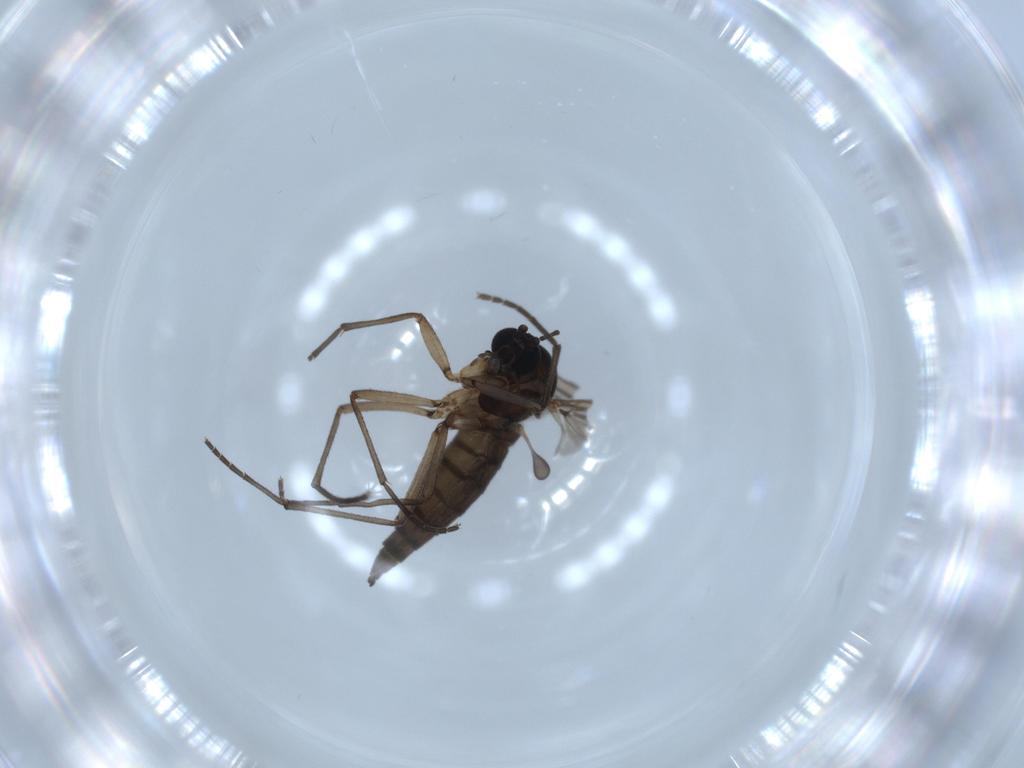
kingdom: Animalia
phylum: Arthropoda
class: Insecta
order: Diptera
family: Sciaridae
